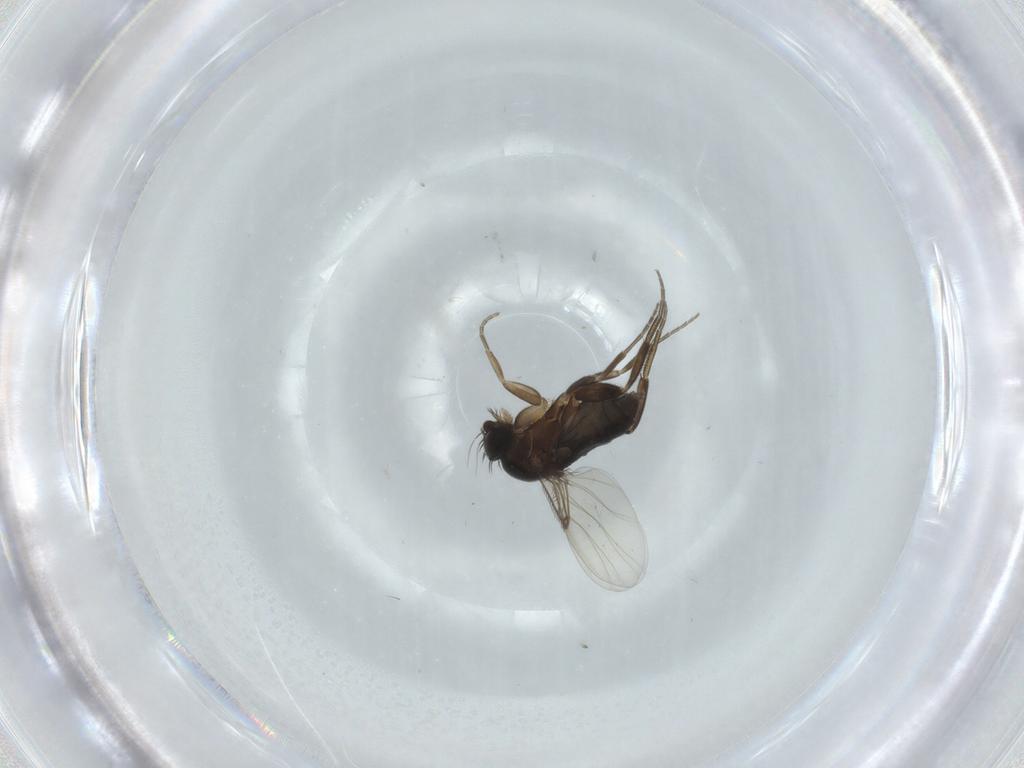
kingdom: Animalia
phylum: Arthropoda
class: Insecta
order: Diptera
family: Phoridae
